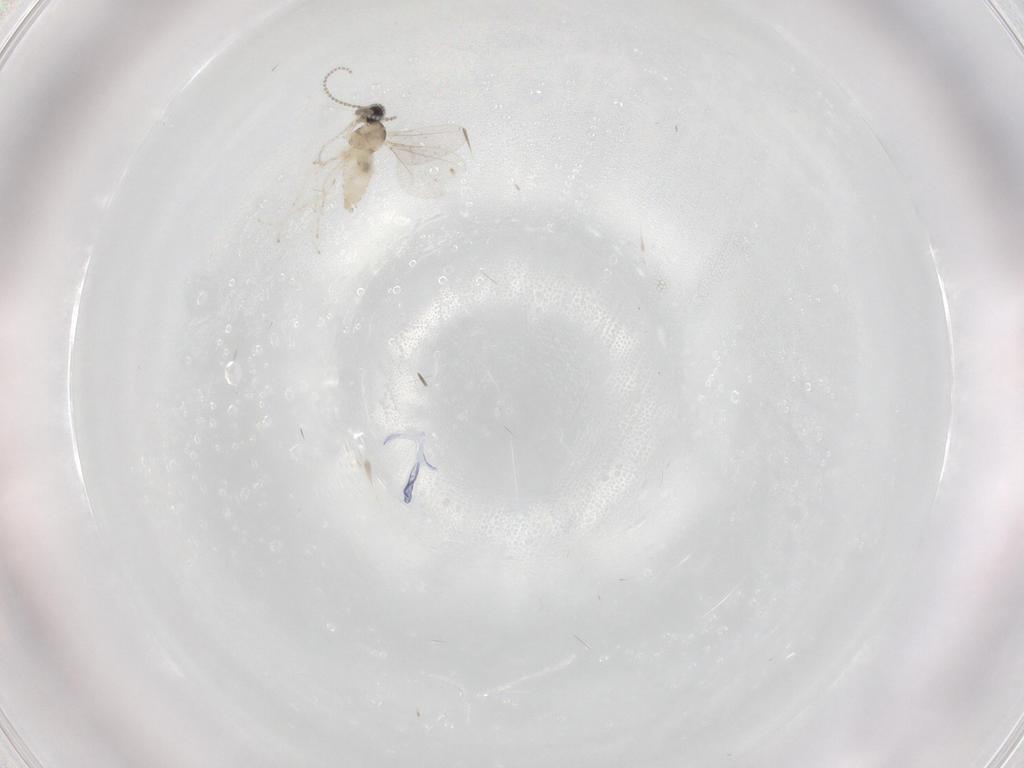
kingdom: Animalia
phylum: Arthropoda
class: Insecta
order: Diptera
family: Cecidomyiidae
